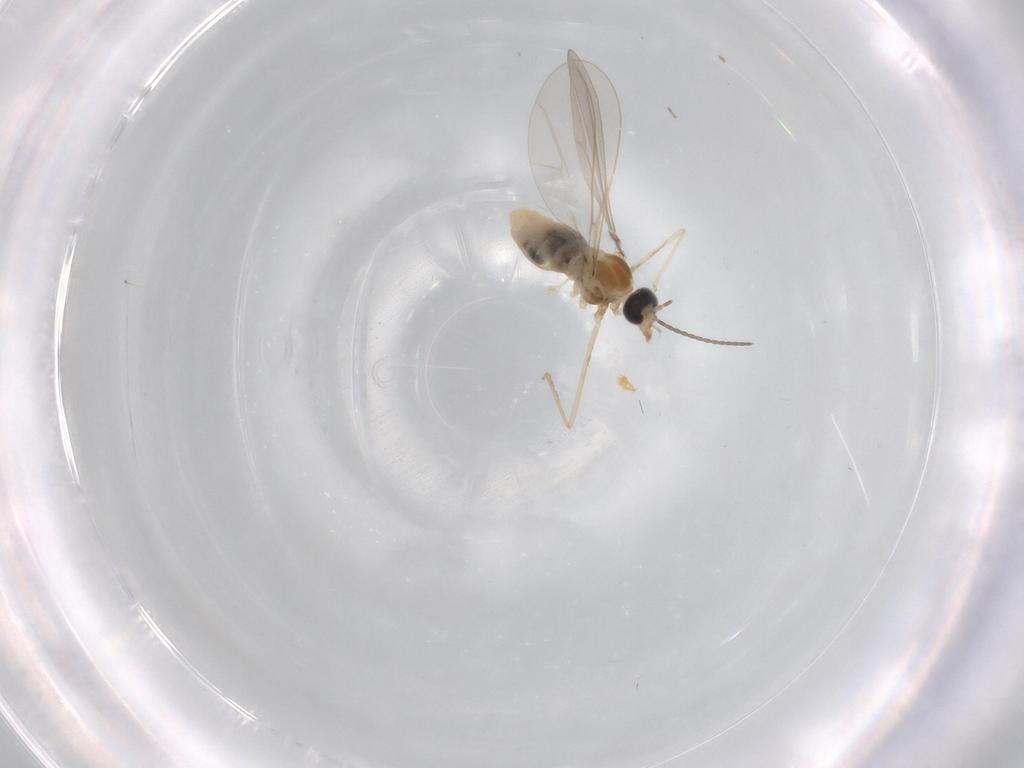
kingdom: Animalia
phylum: Arthropoda
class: Insecta
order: Diptera
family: Cecidomyiidae
